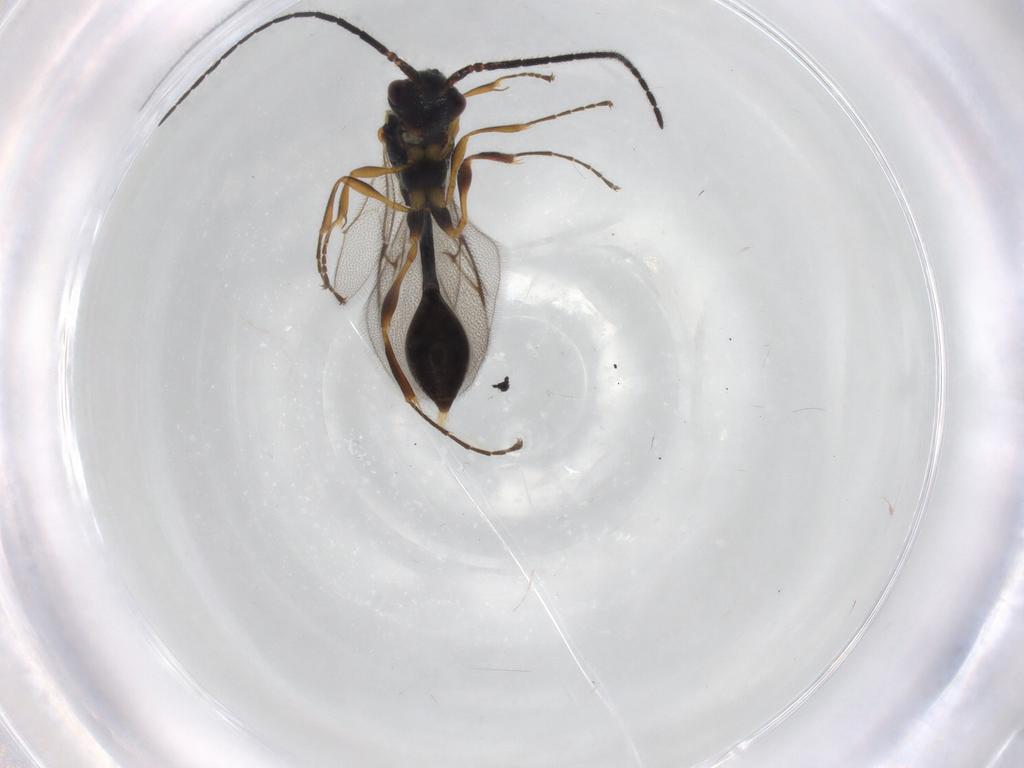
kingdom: Animalia
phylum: Arthropoda
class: Insecta
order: Hymenoptera
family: Diapriidae
